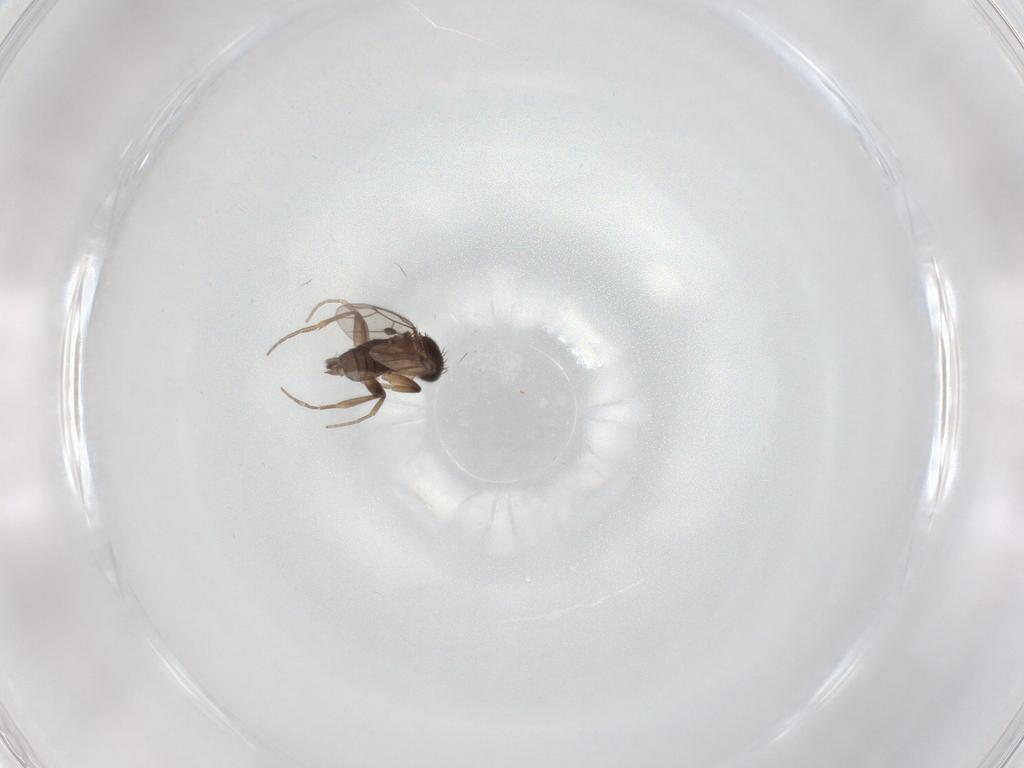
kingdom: Animalia
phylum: Arthropoda
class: Insecta
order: Diptera
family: Phoridae
